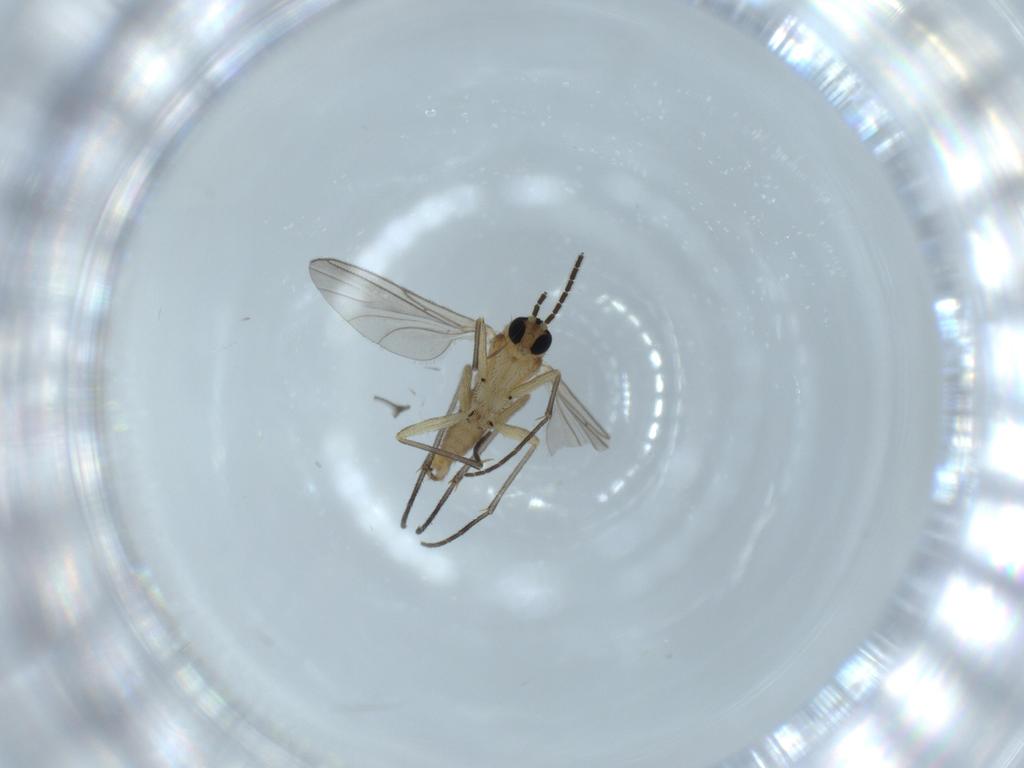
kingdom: Animalia
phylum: Arthropoda
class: Insecta
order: Diptera
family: Sciaridae
